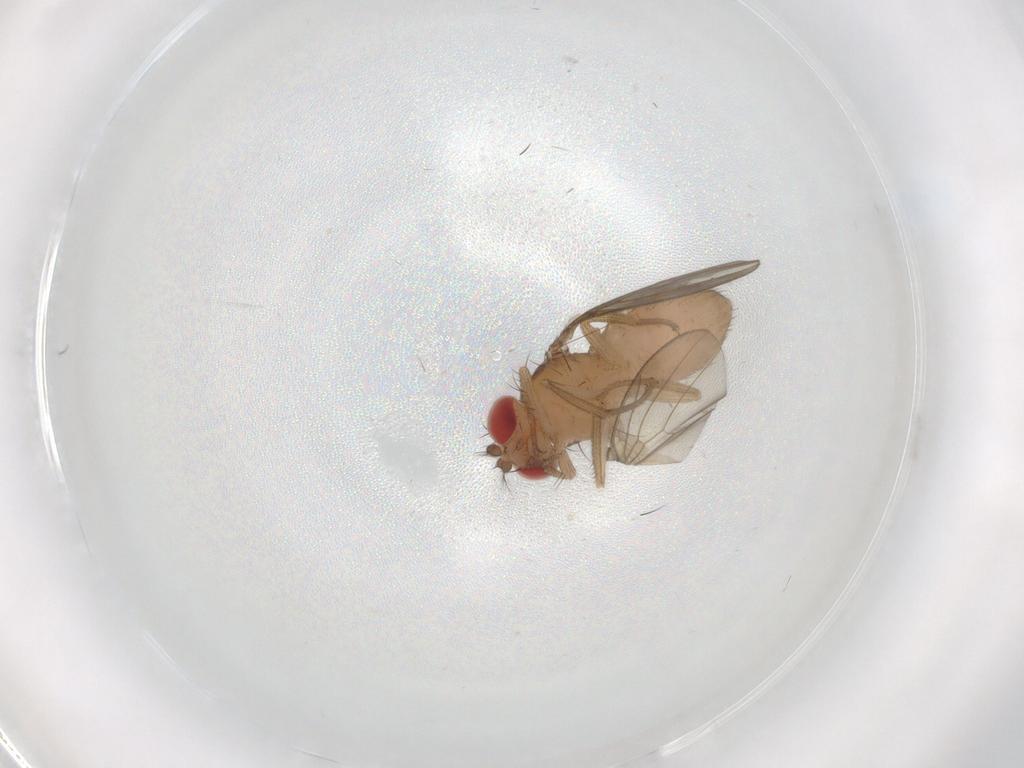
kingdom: Animalia
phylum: Arthropoda
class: Insecta
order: Diptera
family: Drosophilidae
